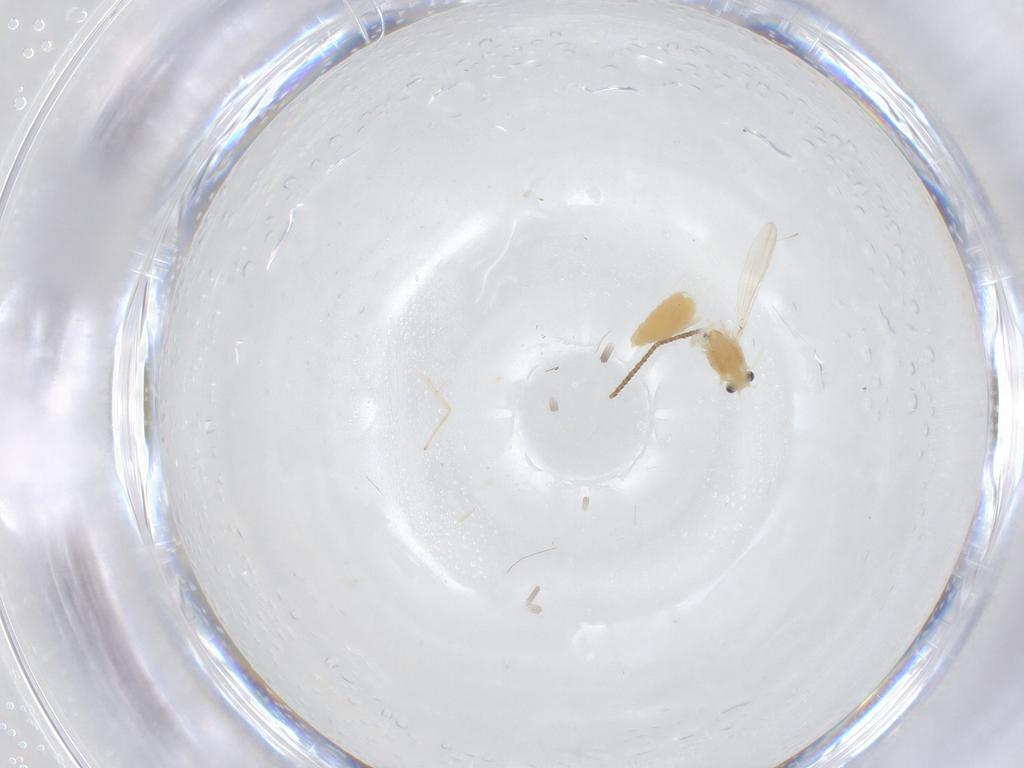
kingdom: Animalia
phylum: Arthropoda
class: Insecta
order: Diptera
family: Chironomidae
